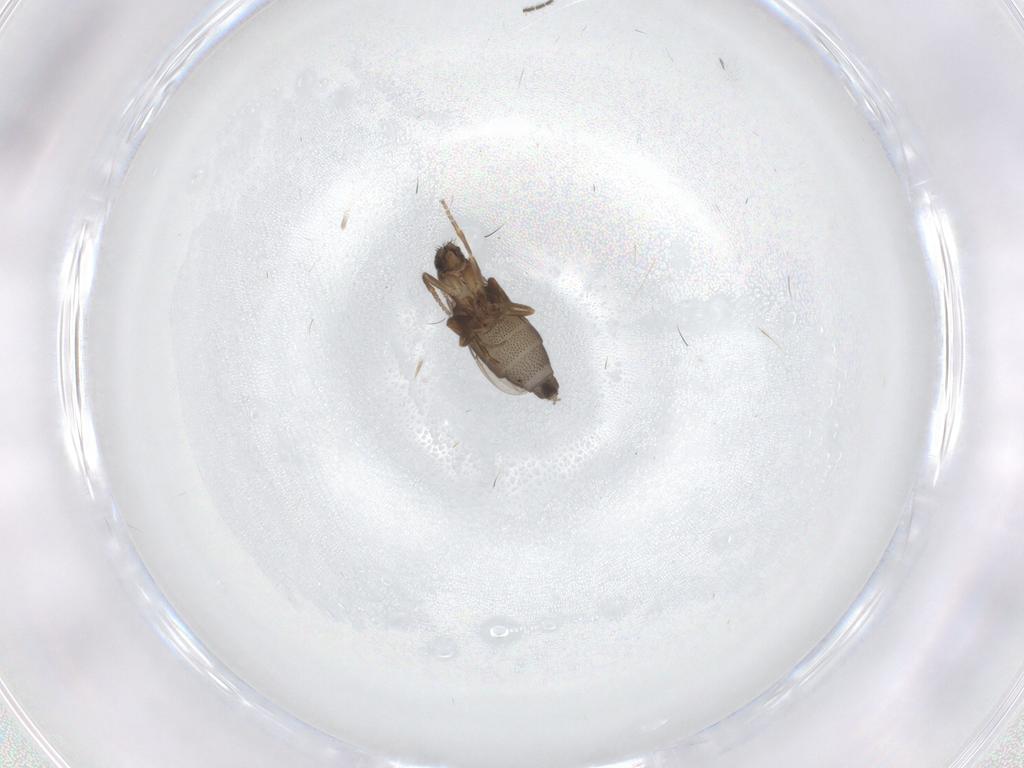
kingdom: Animalia
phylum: Arthropoda
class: Insecta
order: Diptera
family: Phoridae
